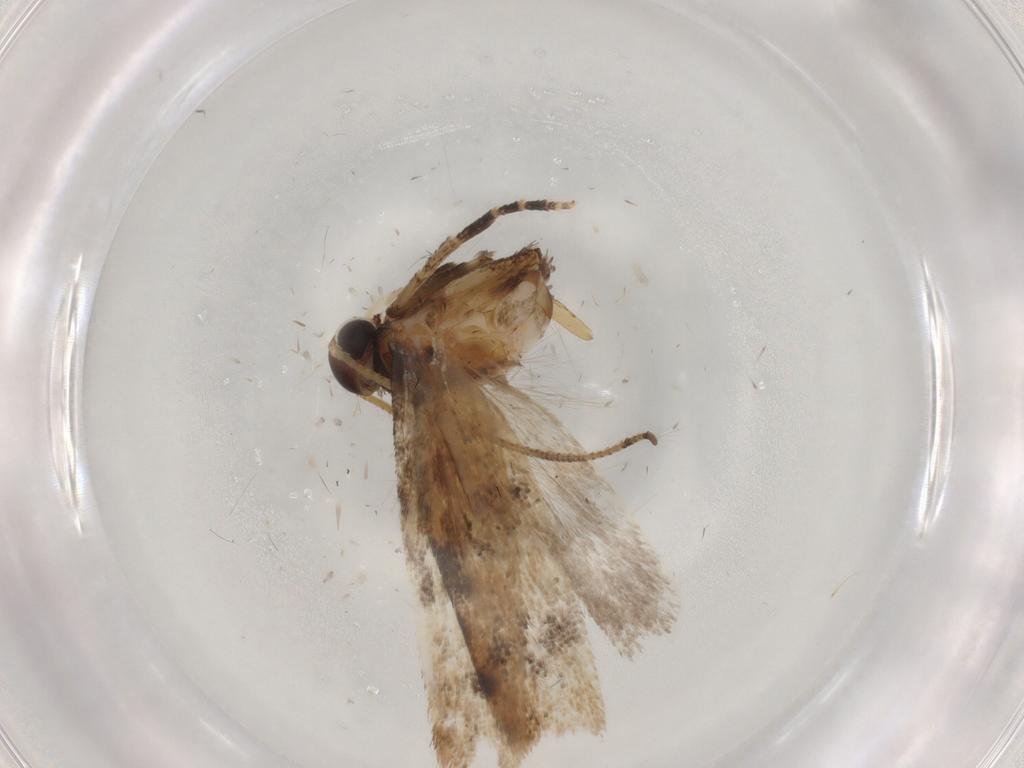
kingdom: Animalia
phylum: Arthropoda
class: Insecta
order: Lepidoptera
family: Gelechiidae
